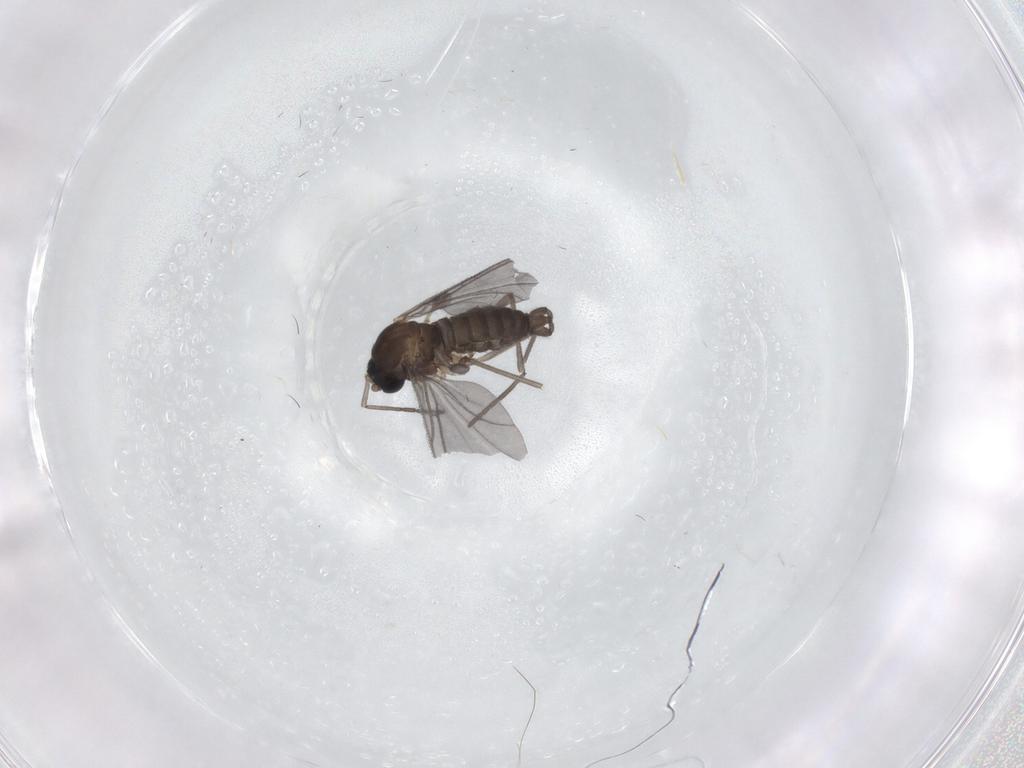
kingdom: Animalia
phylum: Arthropoda
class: Insecta
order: Diptera
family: Sciaridae
